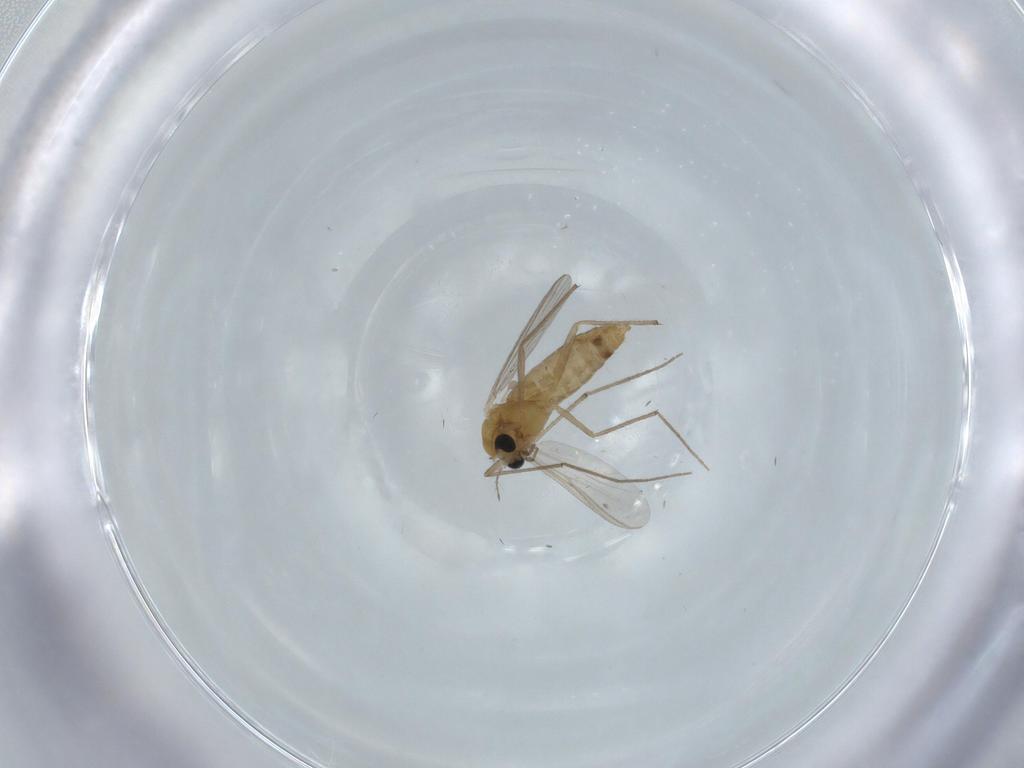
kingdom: Animalia
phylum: Arthropoda
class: Insecta
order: Diptera
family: Chironomidae
